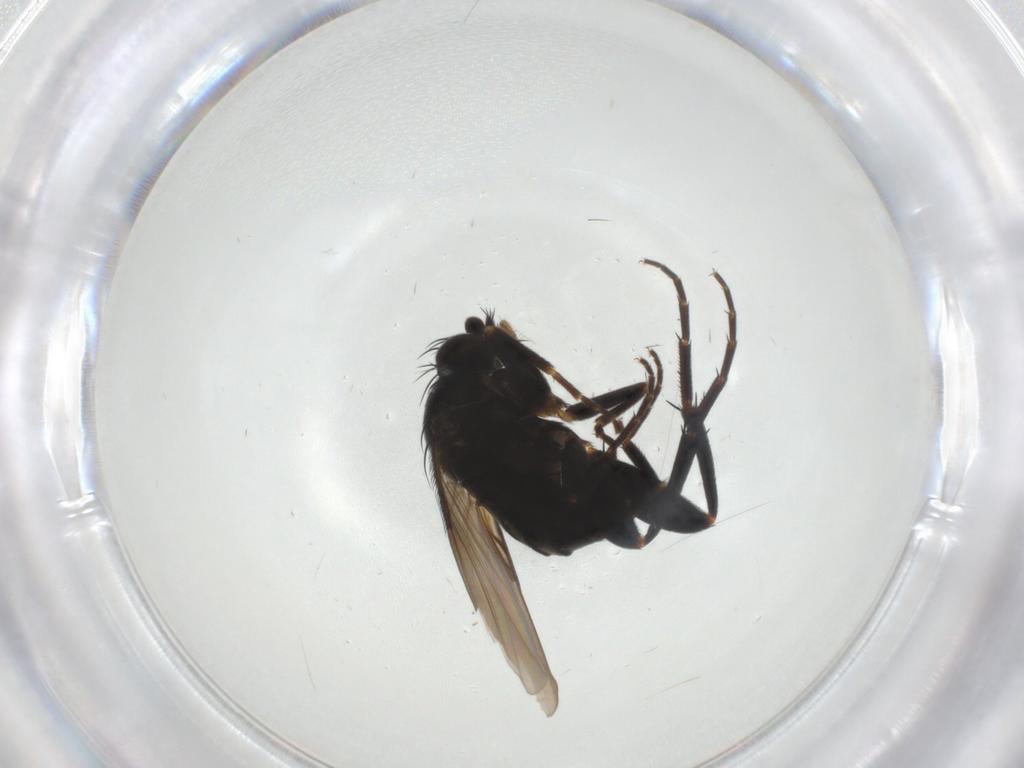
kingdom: Animalia
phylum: Arthropoda
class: Insecta
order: Diptera
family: Phoridae
